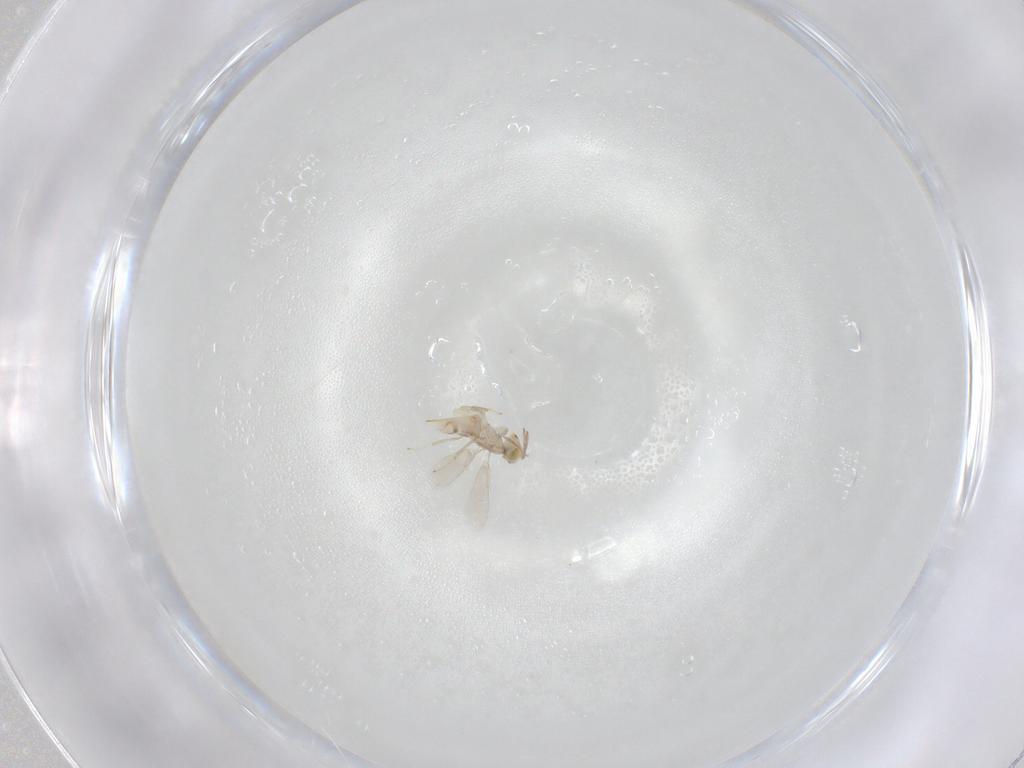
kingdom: Animalia
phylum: Arthropoda
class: Insecta
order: Hymenoptera
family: Aphelinidae
